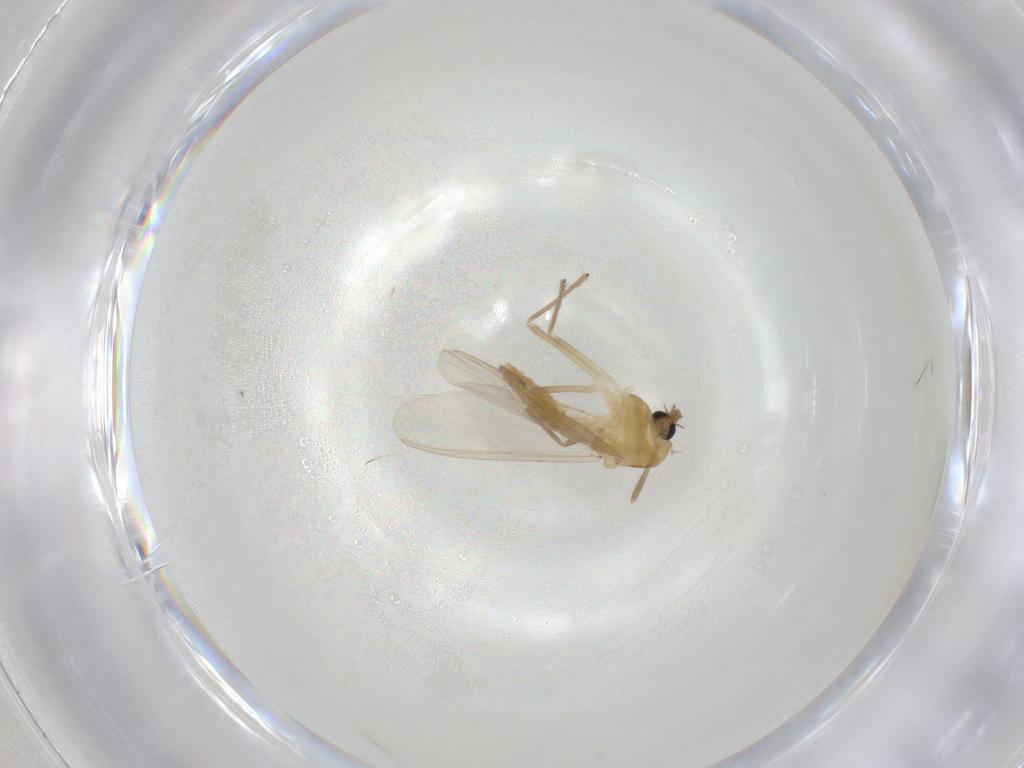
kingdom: Animalia
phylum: Arthropoda
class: Insecta
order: Diptera
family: Chironomidae
